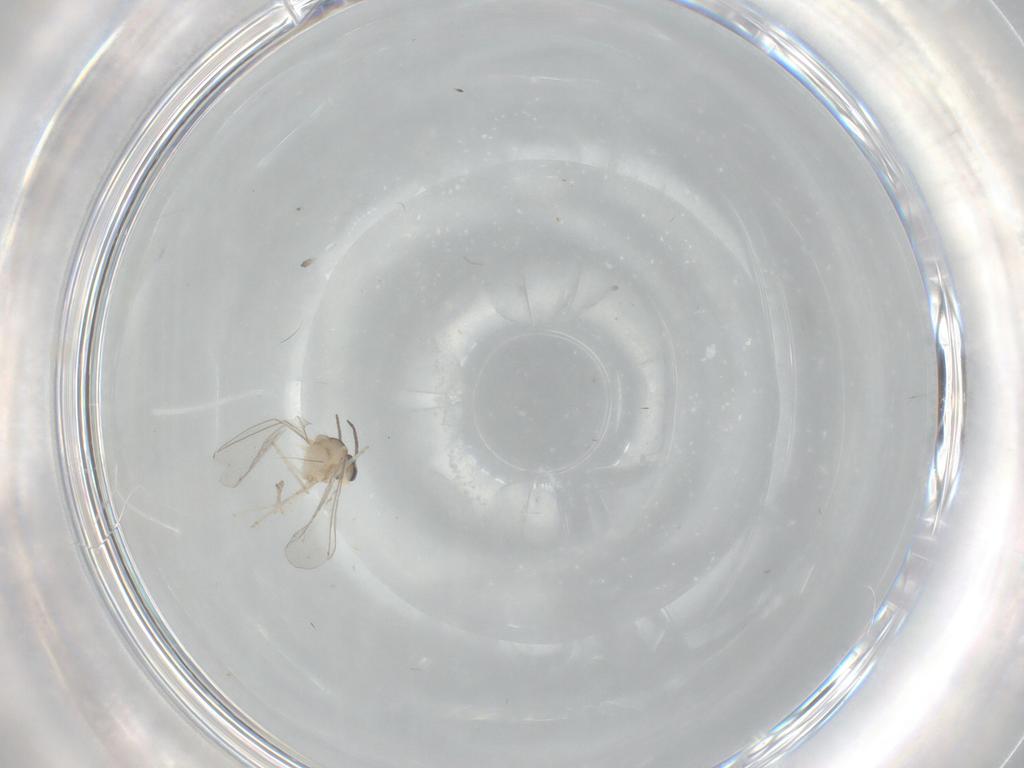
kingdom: Animalia
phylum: Arthropoda
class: Insecta
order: Diptera
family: Cecidomyiidae
